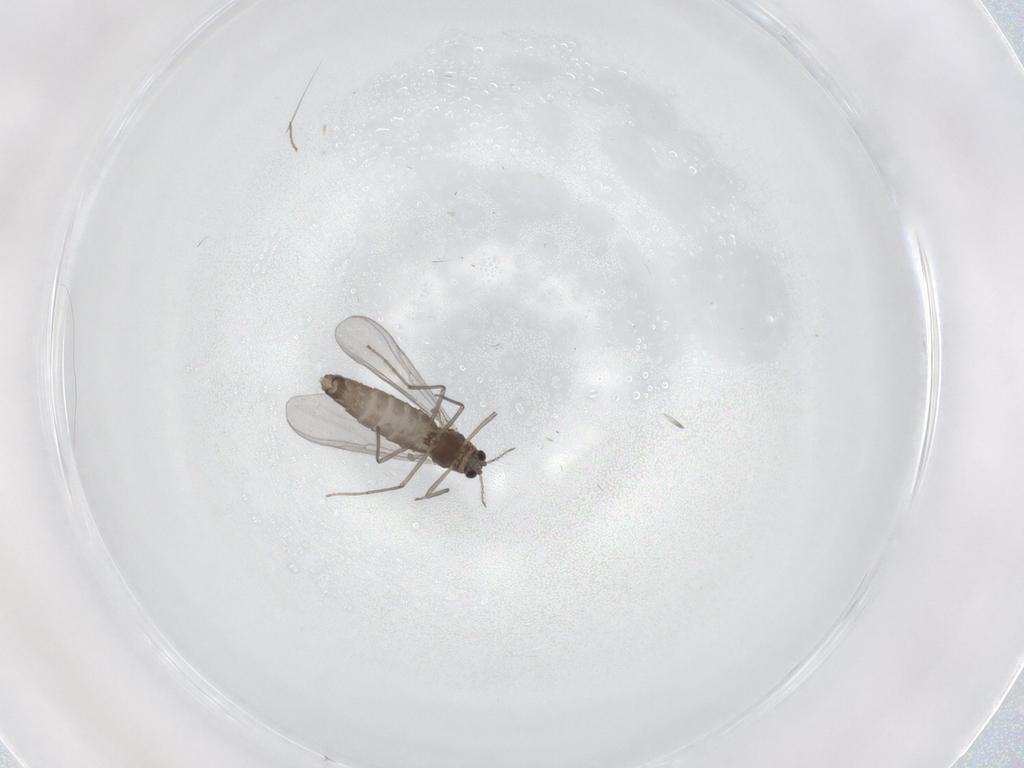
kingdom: Animalia
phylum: Arthropoda
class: Insecta
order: Diptera
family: Chironomidae
